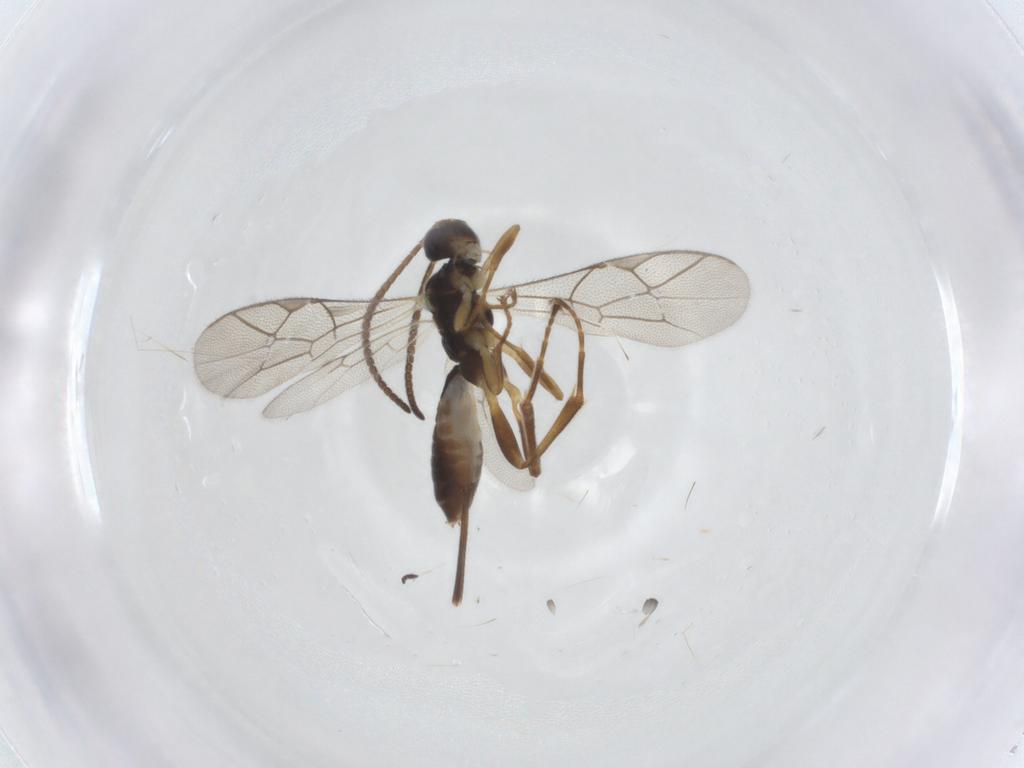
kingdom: Animalia
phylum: Arthropoda
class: Insecta
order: Hymenoptera
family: Ichneumonidae
